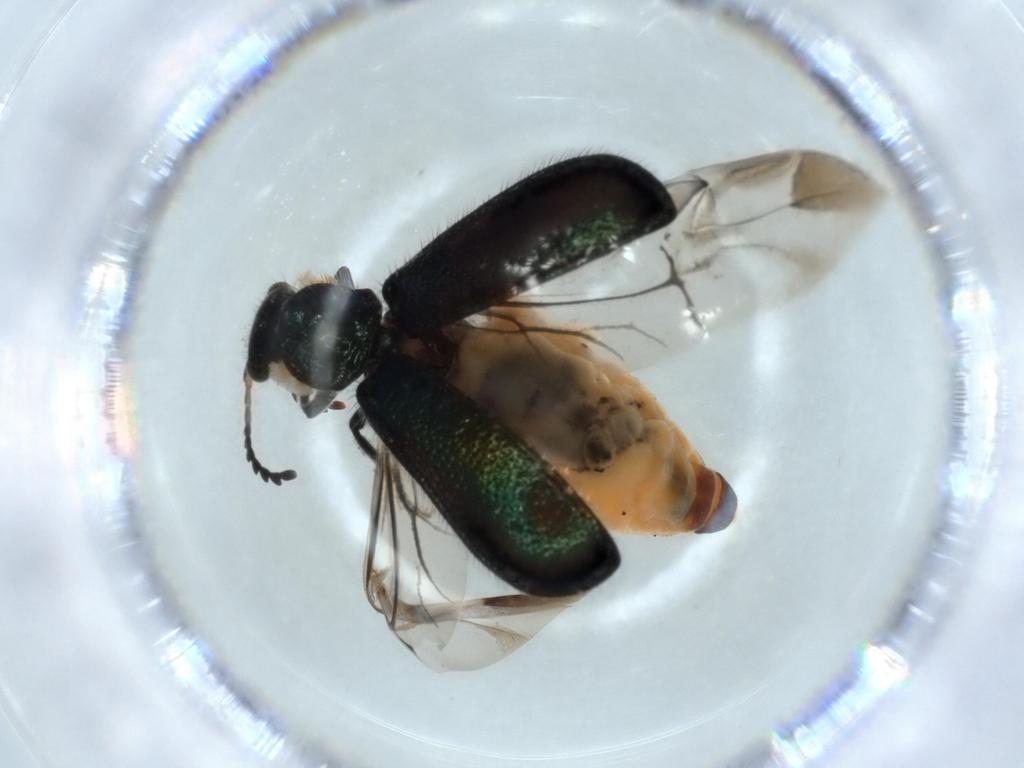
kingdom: Animalia
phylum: Arthropoda
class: Insecta
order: Coleoptera
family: Melyridae
